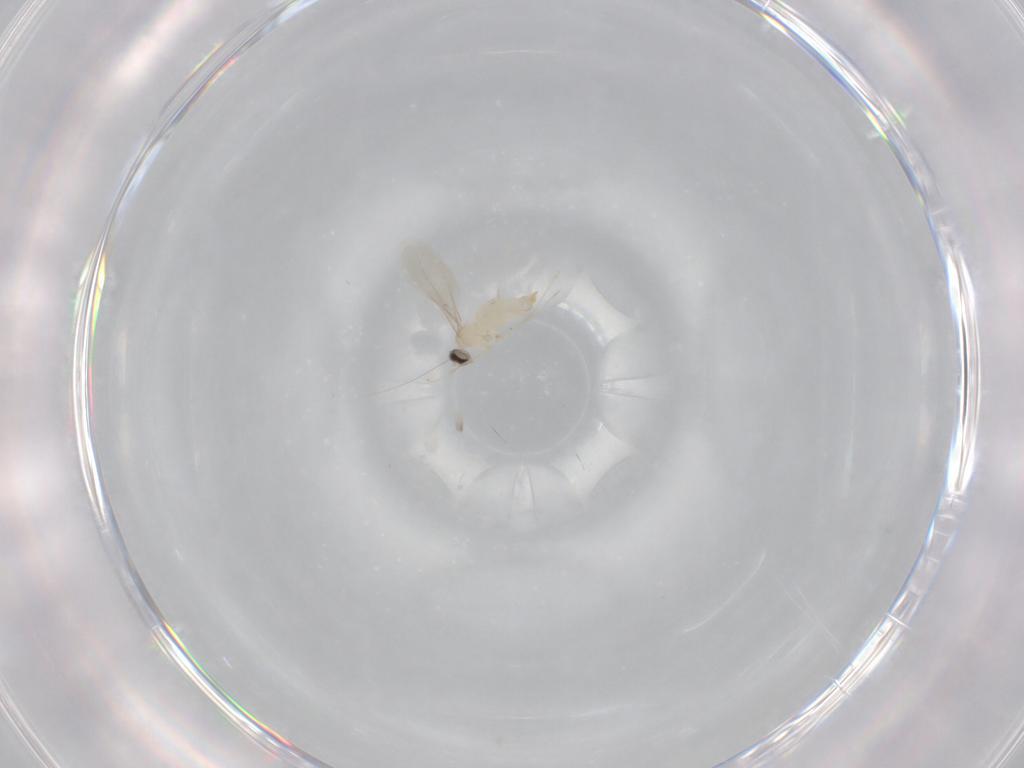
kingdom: Animalia
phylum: Arthropoda
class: Insecta
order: Diptera
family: Cecidomyiidae
